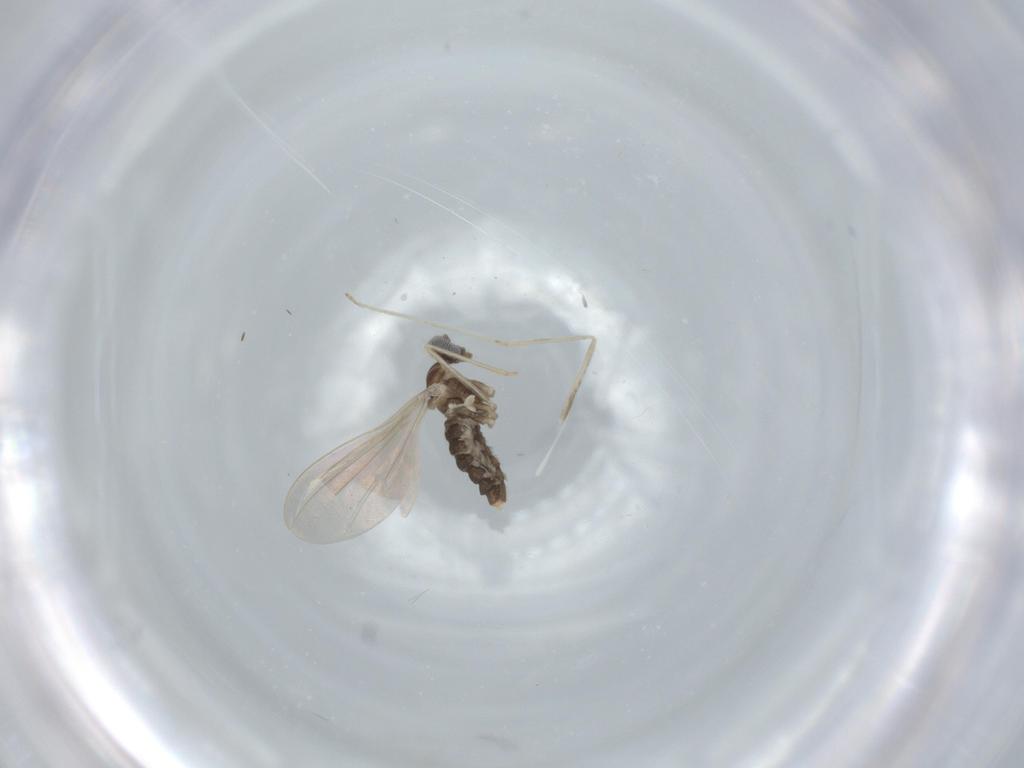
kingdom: Animalia
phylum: Arthropoda
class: Insecta
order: Diptera
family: Cecidomyiidae
